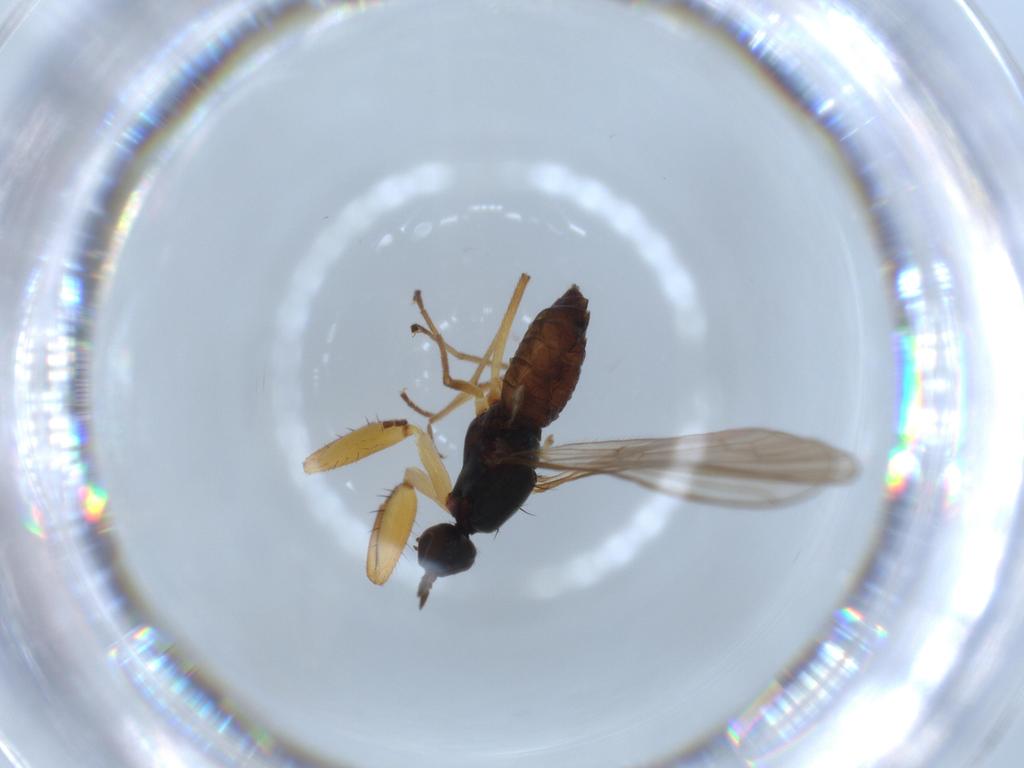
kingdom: Animalia
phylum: Arthropoda
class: Insecta
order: Diptera
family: Empididae
